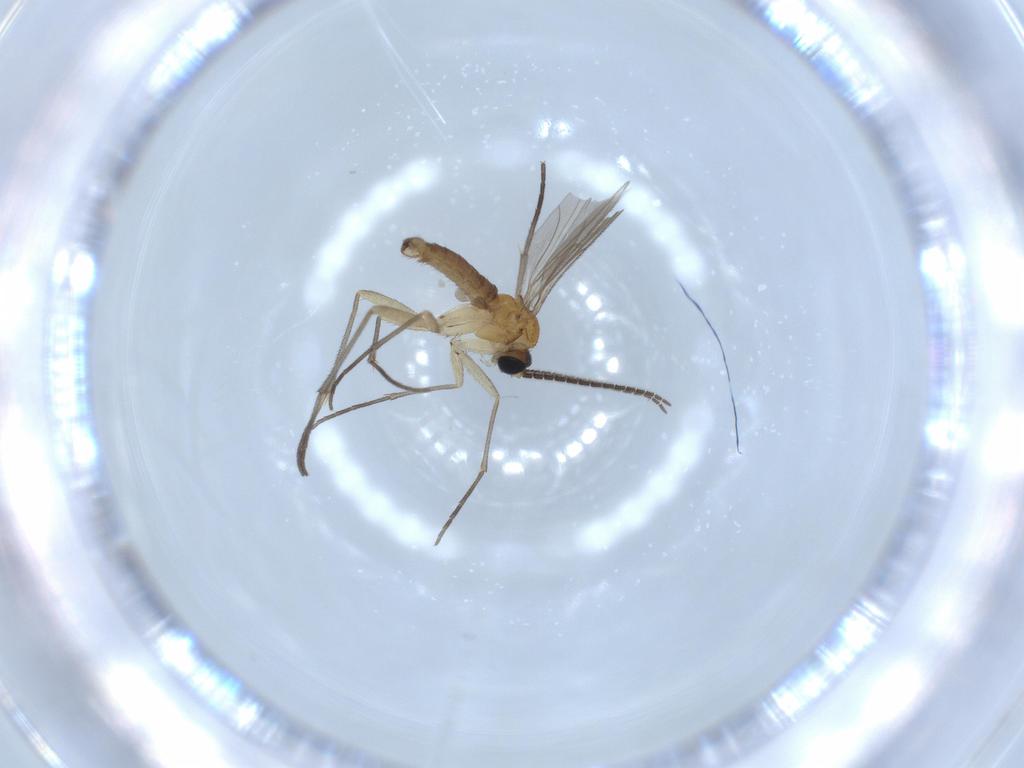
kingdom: Animalia
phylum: Arthropoda
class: Insecta
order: Diptera
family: Sciaridae
